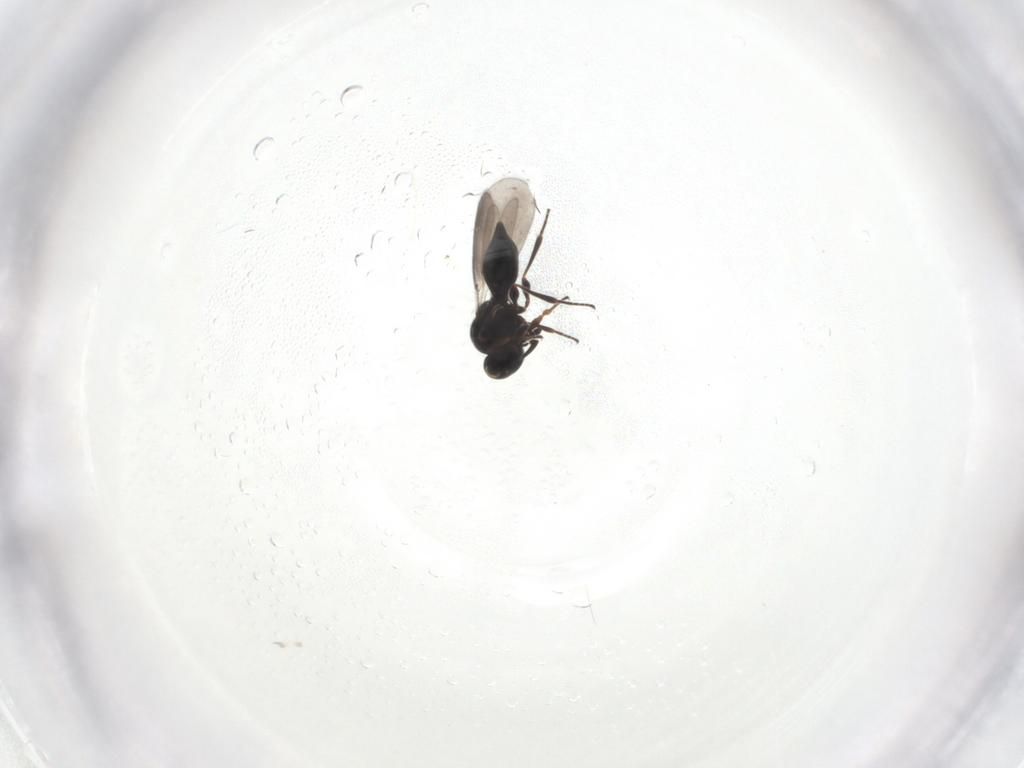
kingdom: Animalia
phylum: Arthropoda
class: Insecta
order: Hymenoptera
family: Platygastridae
